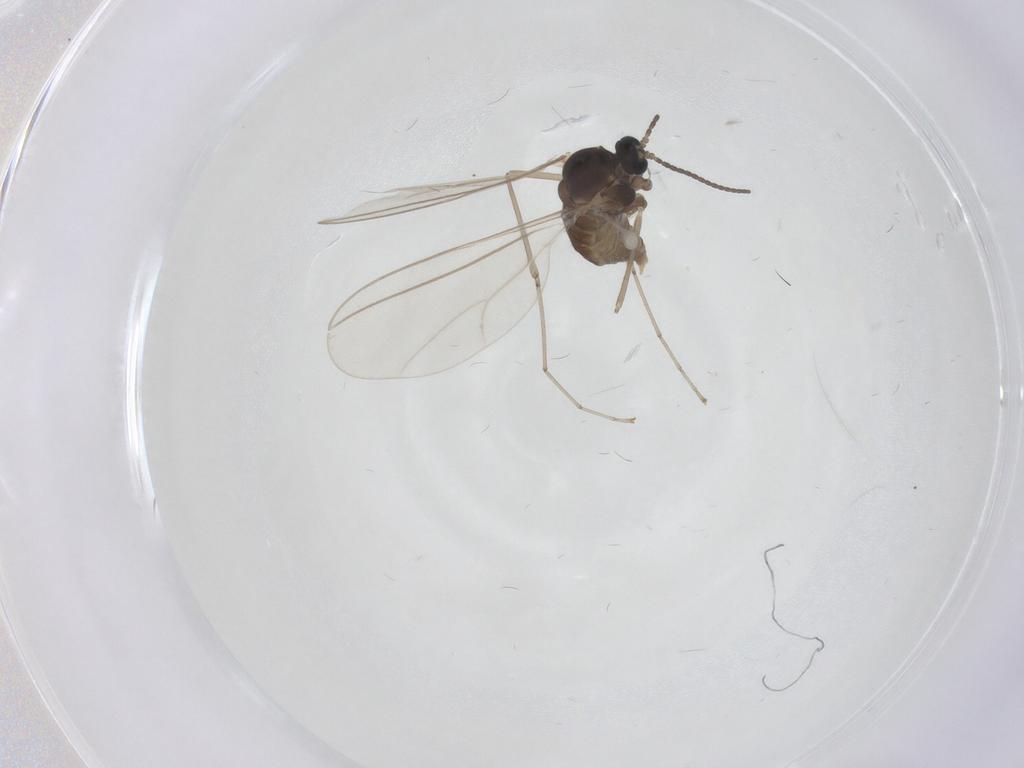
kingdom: Animalia
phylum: Arthropoda
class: Insecta
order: Diptera
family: Cecidomyiidae
